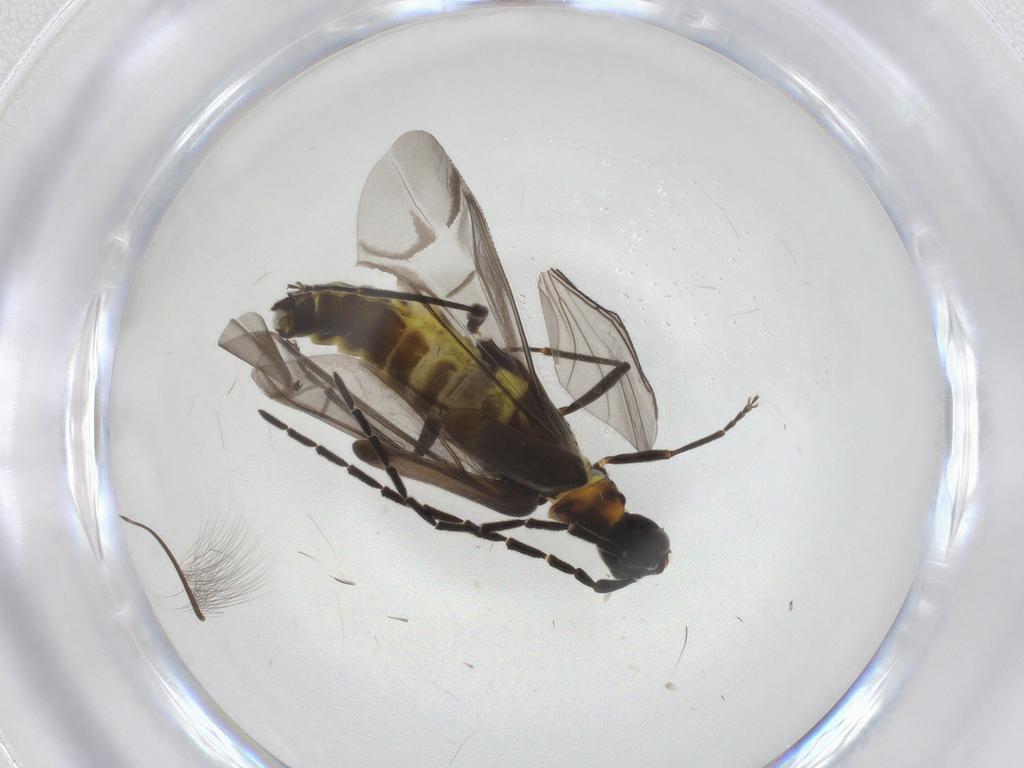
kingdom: Animalia
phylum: Arthropoda
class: Insecta
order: Coleoptera
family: Cantharidae
